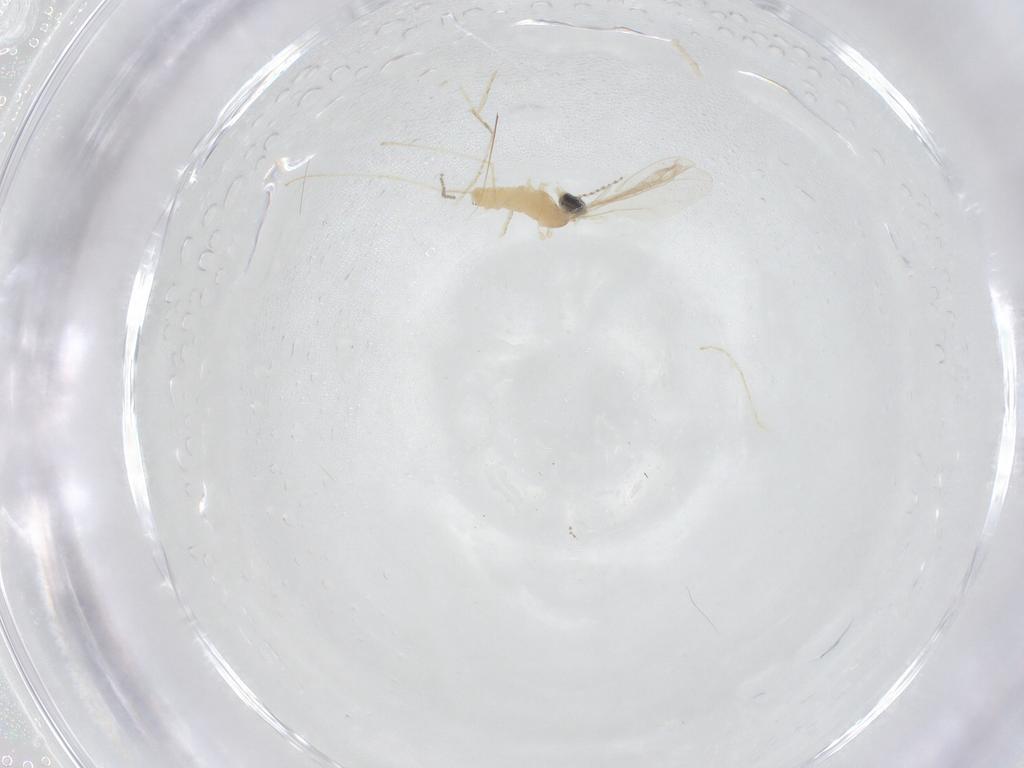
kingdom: Animalia
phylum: Arthropoda
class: Insecta
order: Diptera
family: Cecidomyiidae
